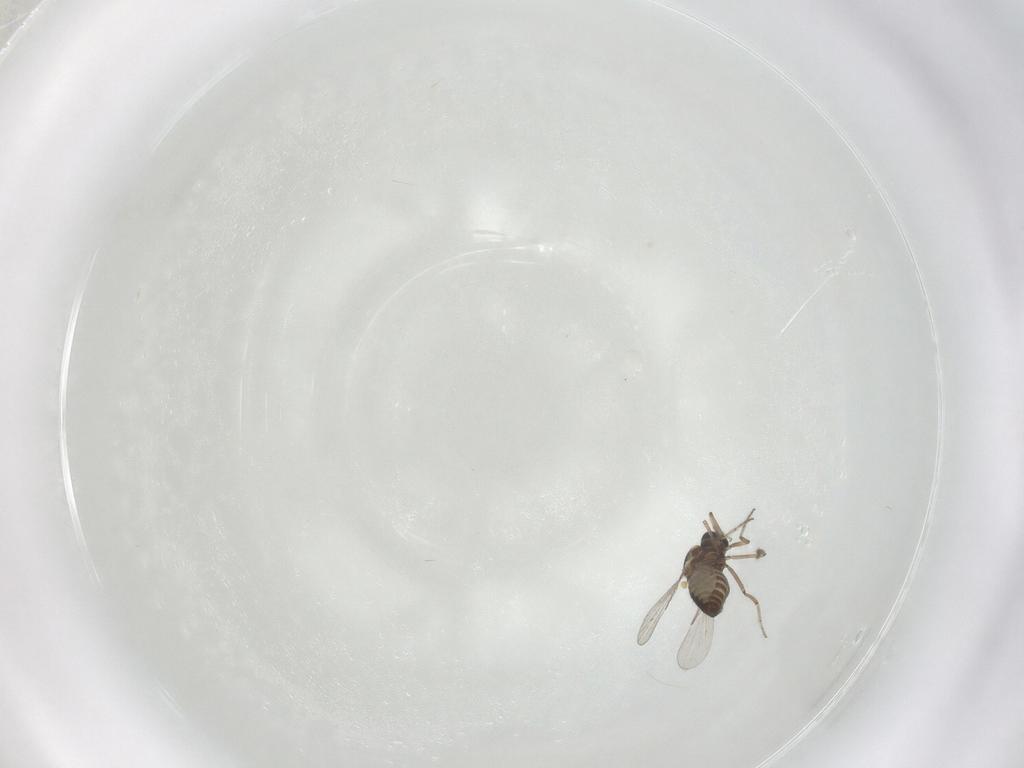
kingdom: Animalia
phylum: Arthropoda
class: Insecta
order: Diptera
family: Ceratopogonidae
